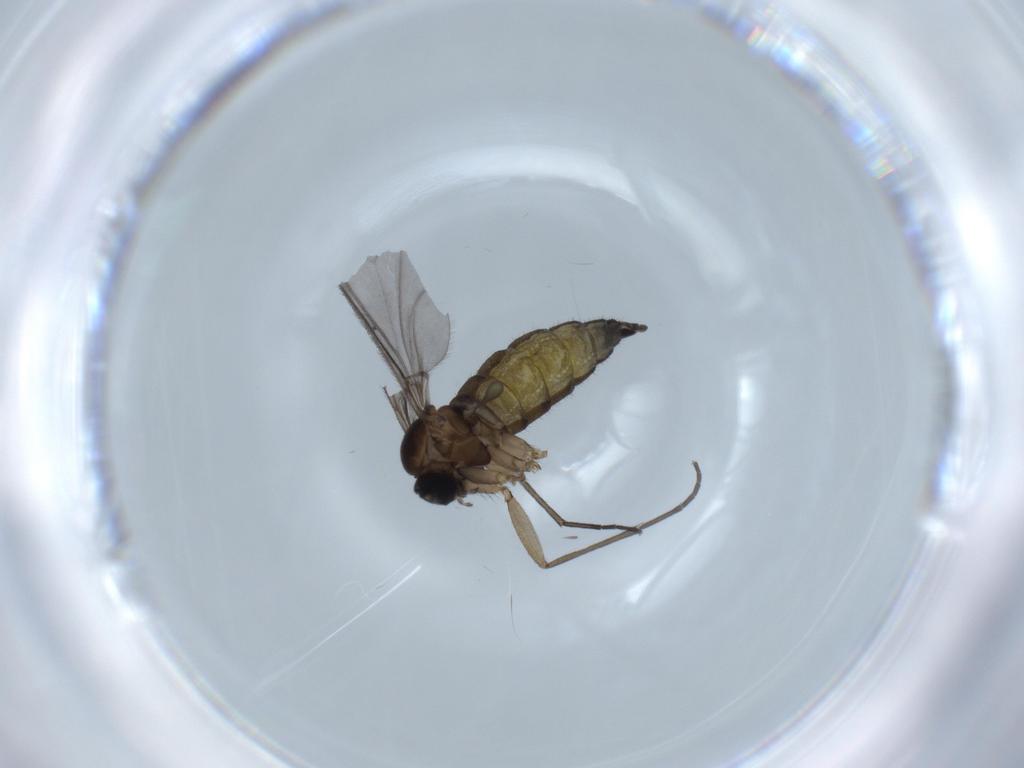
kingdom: Animalia
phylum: Arthropoda
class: Insecta
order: Diptera
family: Sciaridae
